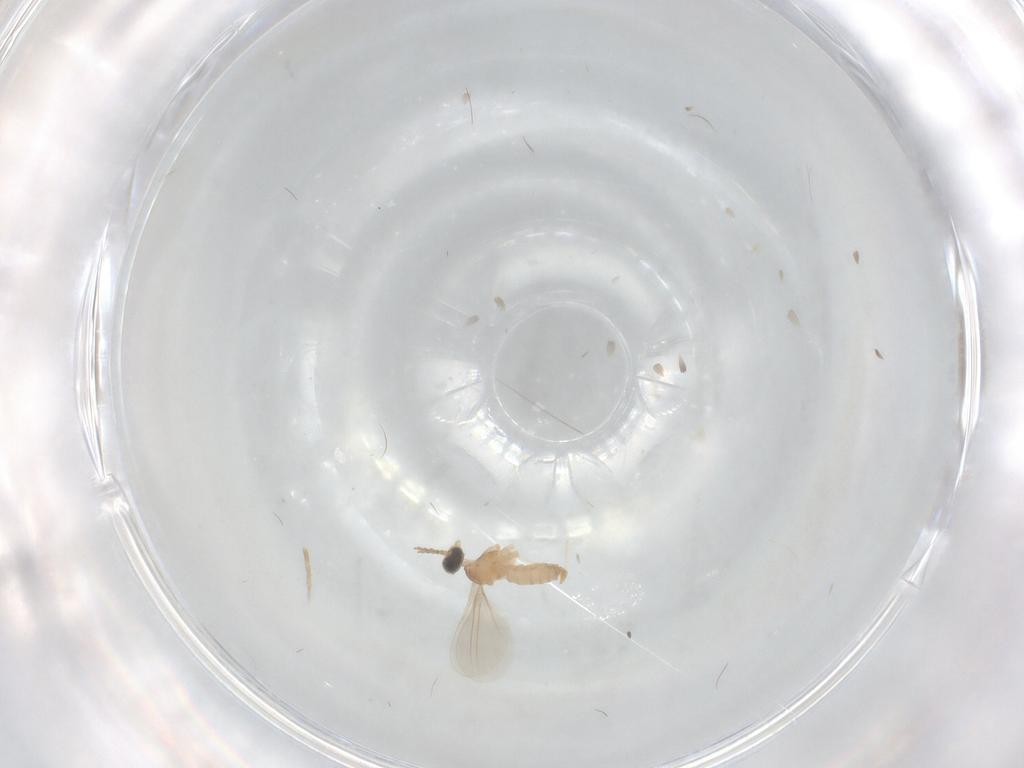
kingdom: Animalia
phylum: Arthropoda
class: Insecta
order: Diptera
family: Cecidomyiidae
